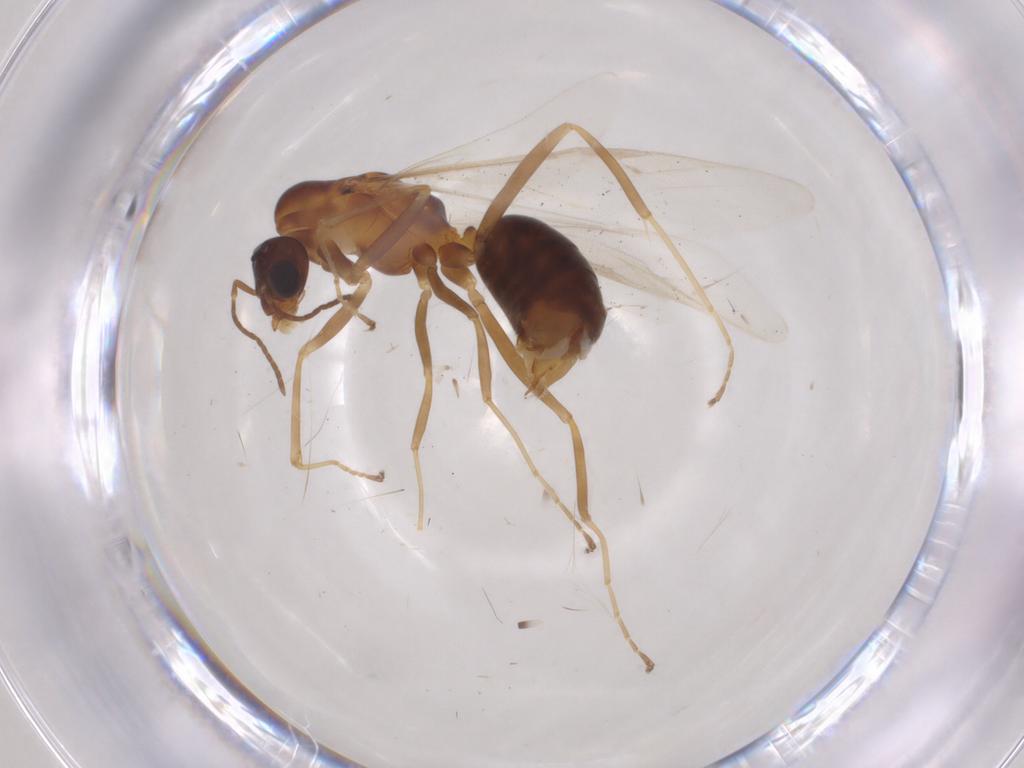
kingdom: Animalia
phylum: Arthropoda
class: Insecta
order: Hymenoptera
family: Formicidae
